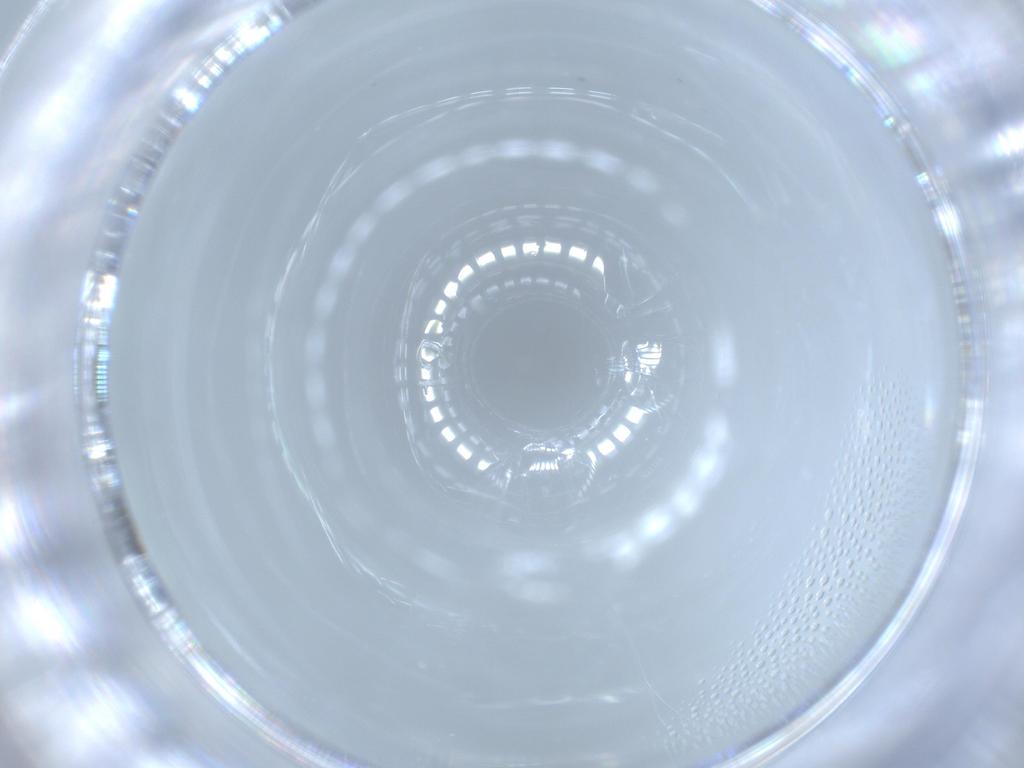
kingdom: Animalia
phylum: Arthropoda
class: Insecta
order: Diptera
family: Limoniidae
